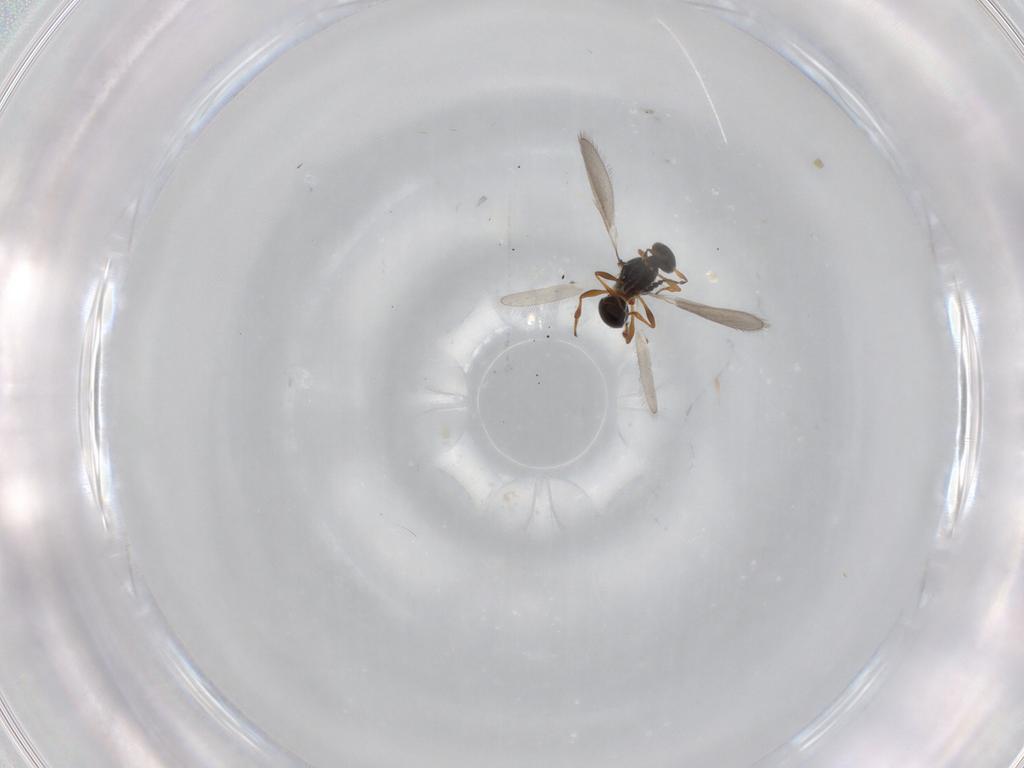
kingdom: Animalia
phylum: Arthropoda
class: Insecta
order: Hymenoptera
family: Platygastridae
